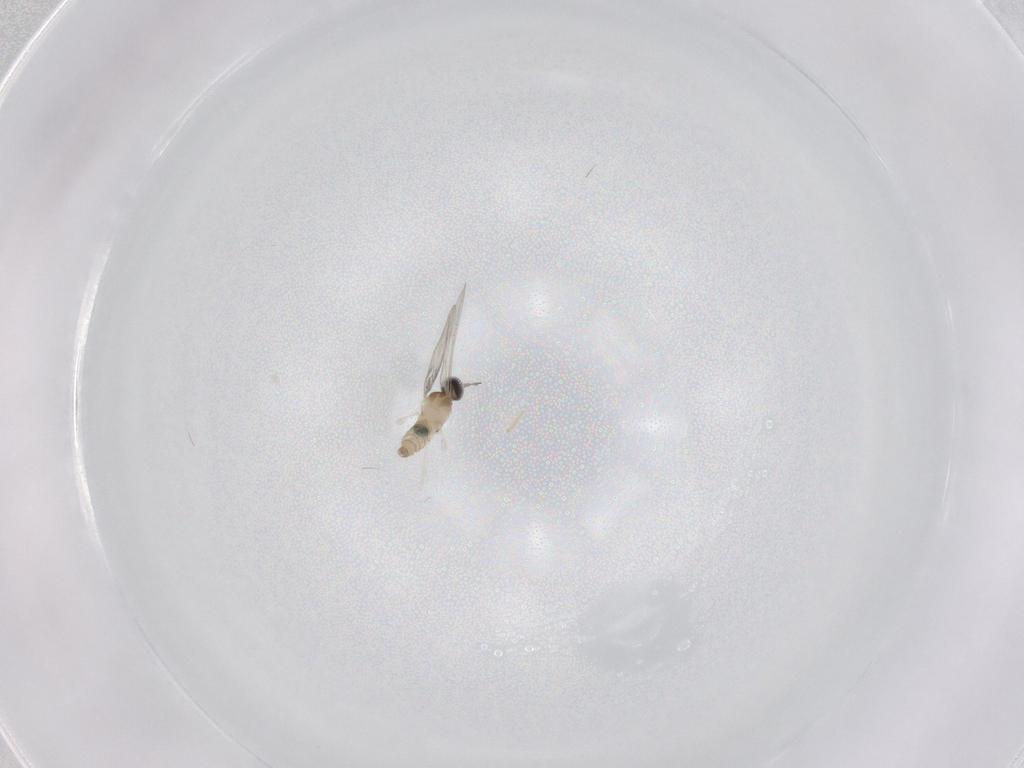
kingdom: Animalia
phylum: Arthropoda
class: Insecta
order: Diptera
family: Cecidomyiidae
